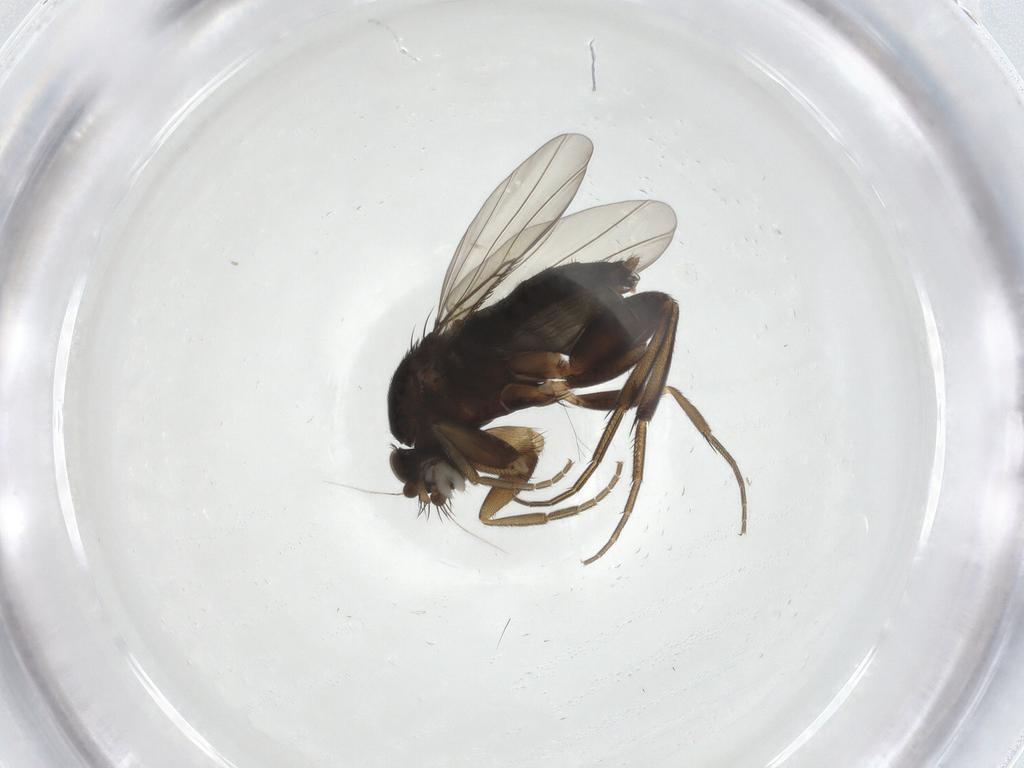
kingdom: Animalia
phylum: Arthropoda
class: Insecta
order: Diptera
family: Phoridae
